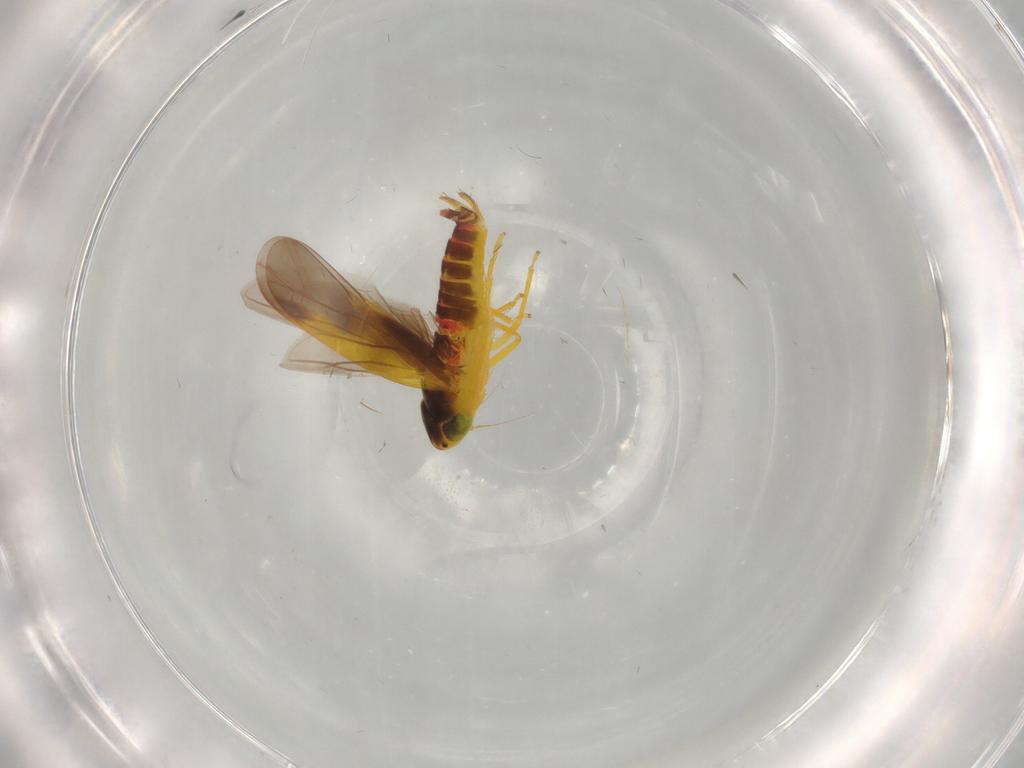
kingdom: Animalia
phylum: Arthropoda
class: Insecta
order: Hemiptera
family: Cicadellidae
